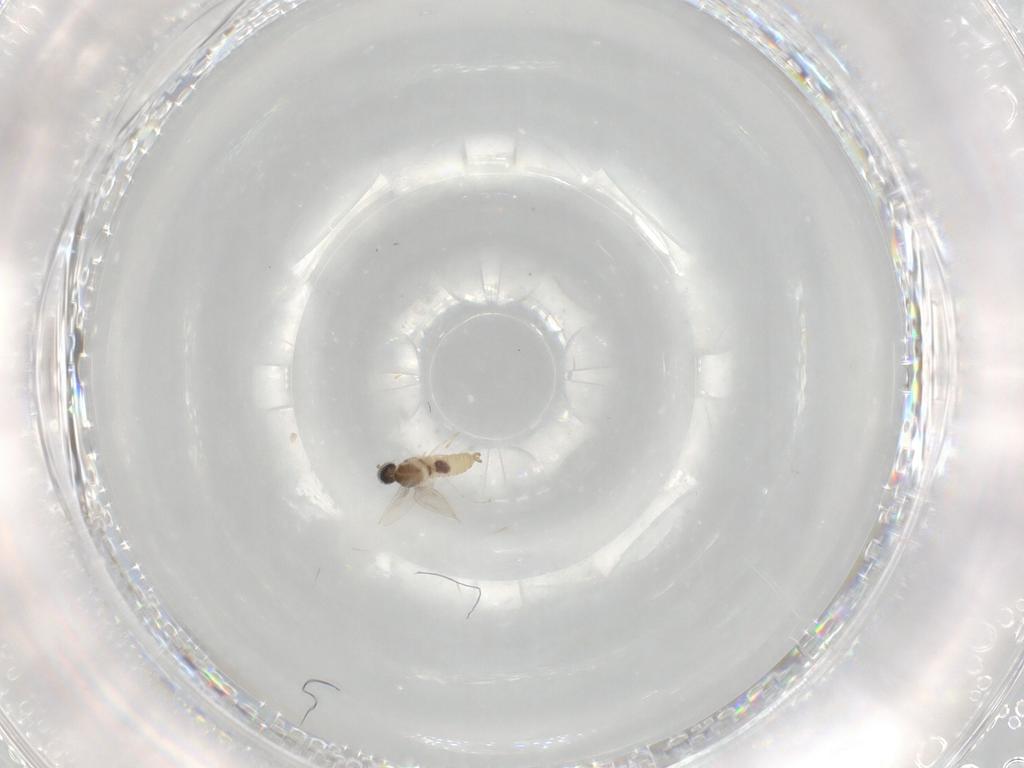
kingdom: Animalia
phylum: Arthropoda
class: Insecta
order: Diptera
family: Cecidomyiidae
